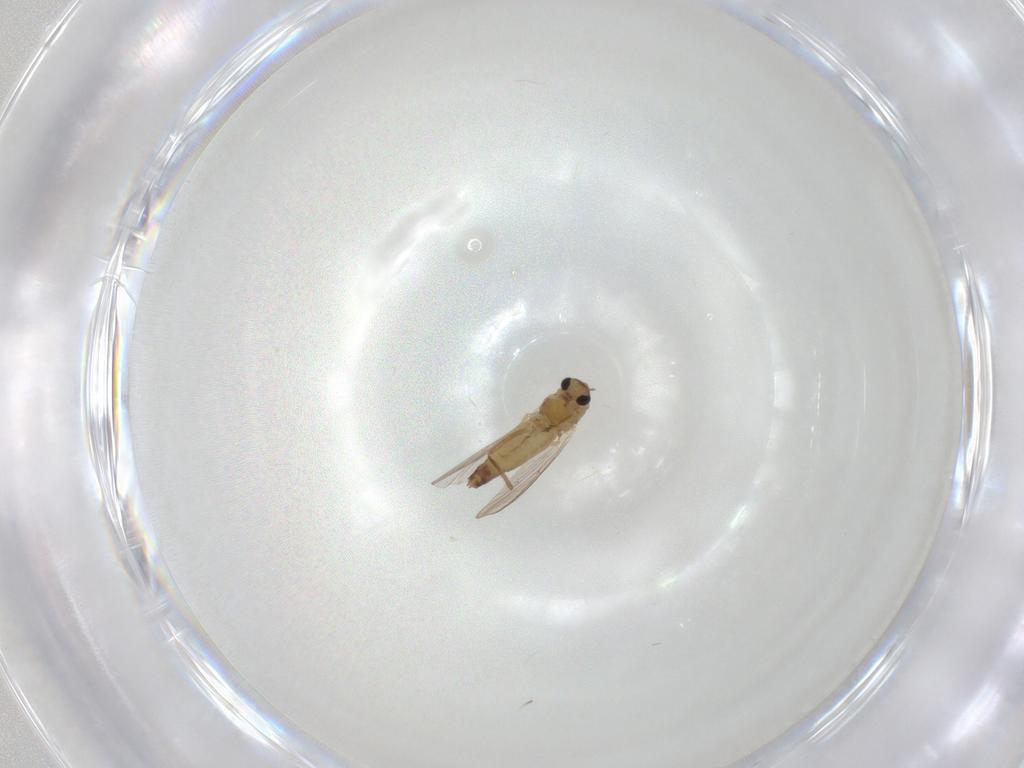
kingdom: Animalia
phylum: Arthropoda
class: Insecta
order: Diptera
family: Chironomidae
